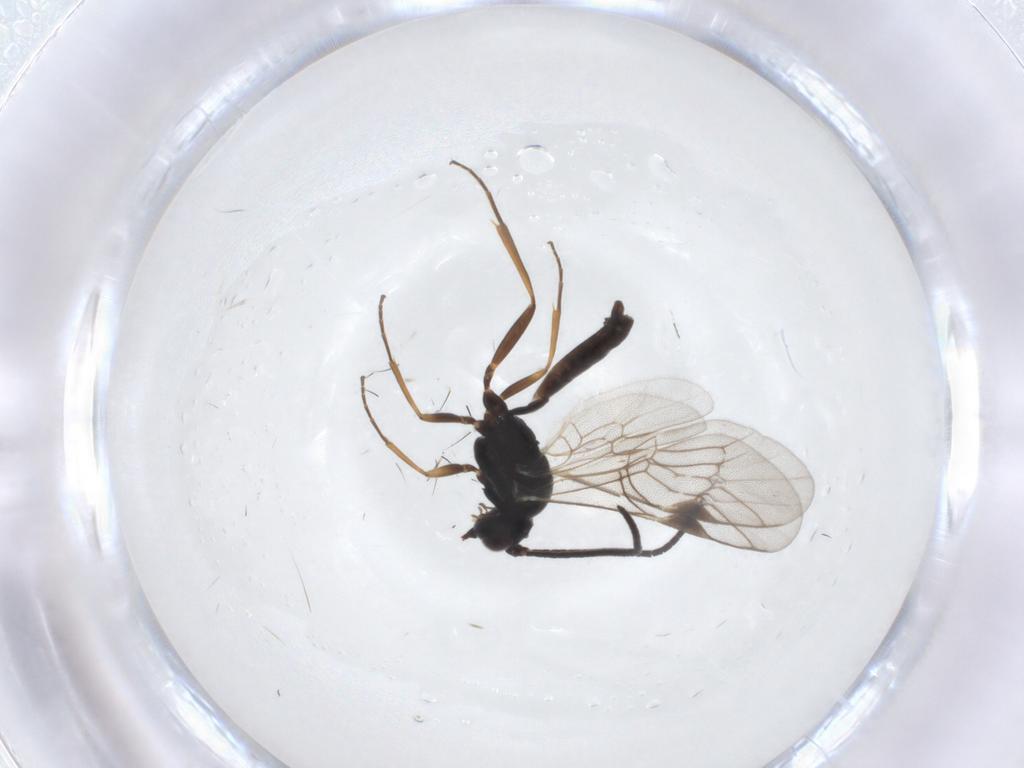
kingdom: Animalia
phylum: Arthropoda
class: Insecta
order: Hymenoptera
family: Ichneumonidae
